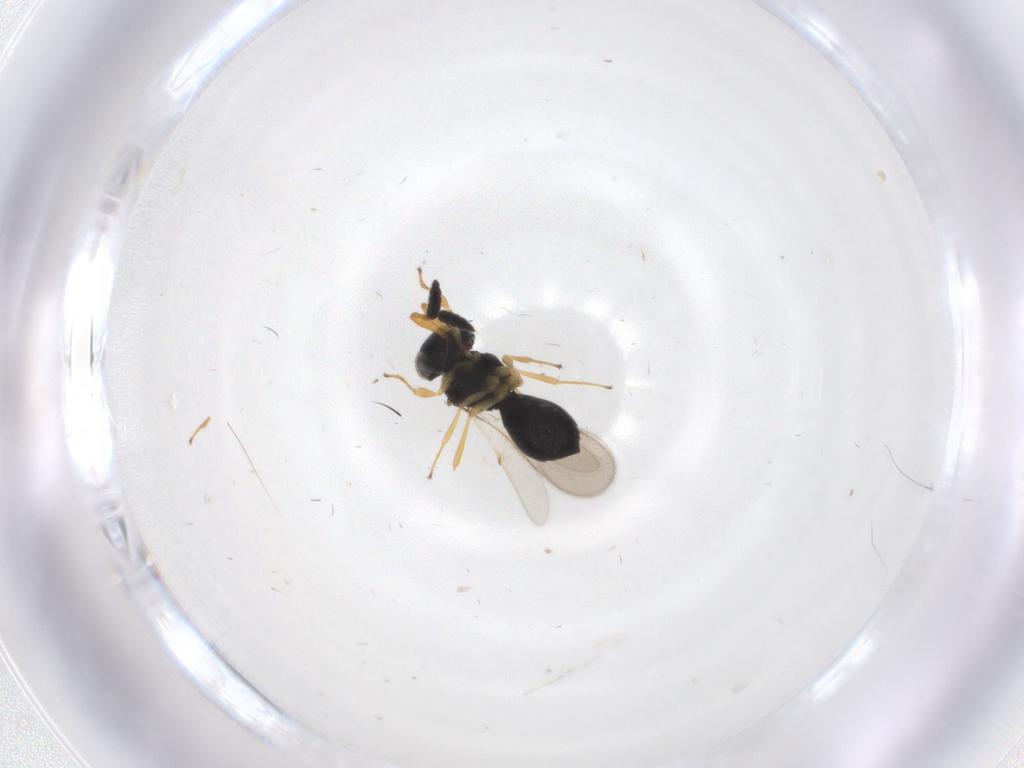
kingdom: Animalia
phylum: Arthropoda
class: Insecta
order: Hymenoptera
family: Scelionidae
